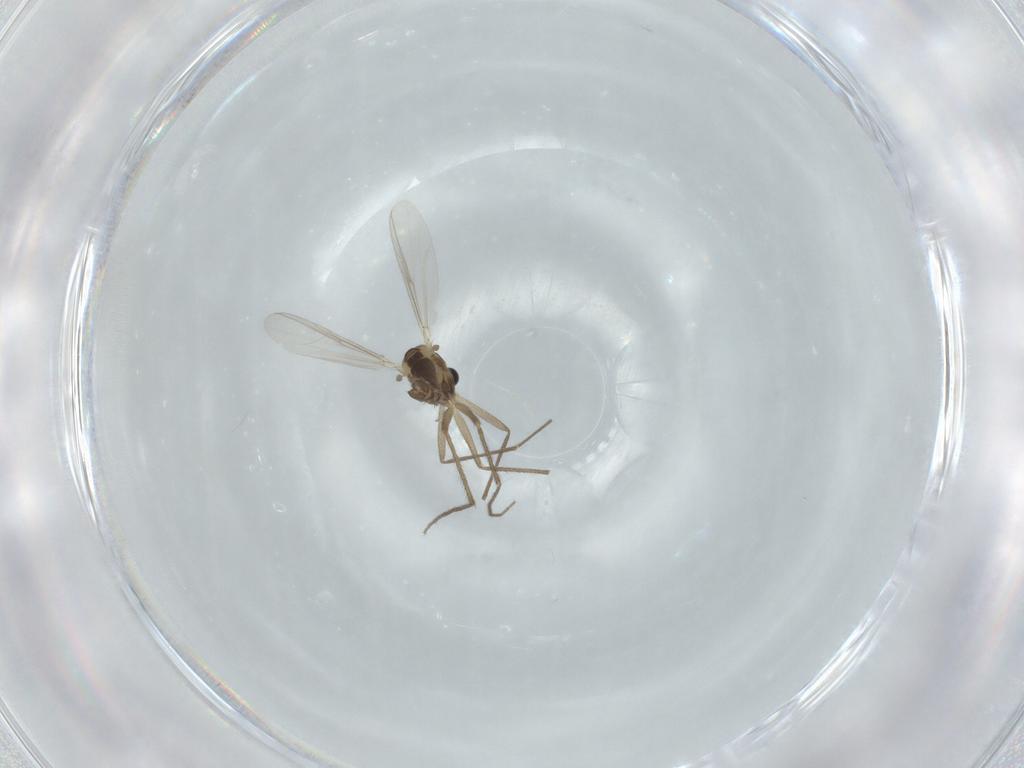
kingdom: Animalia
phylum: Arthropoda
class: Insecta
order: Diptera
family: Chironomidae
